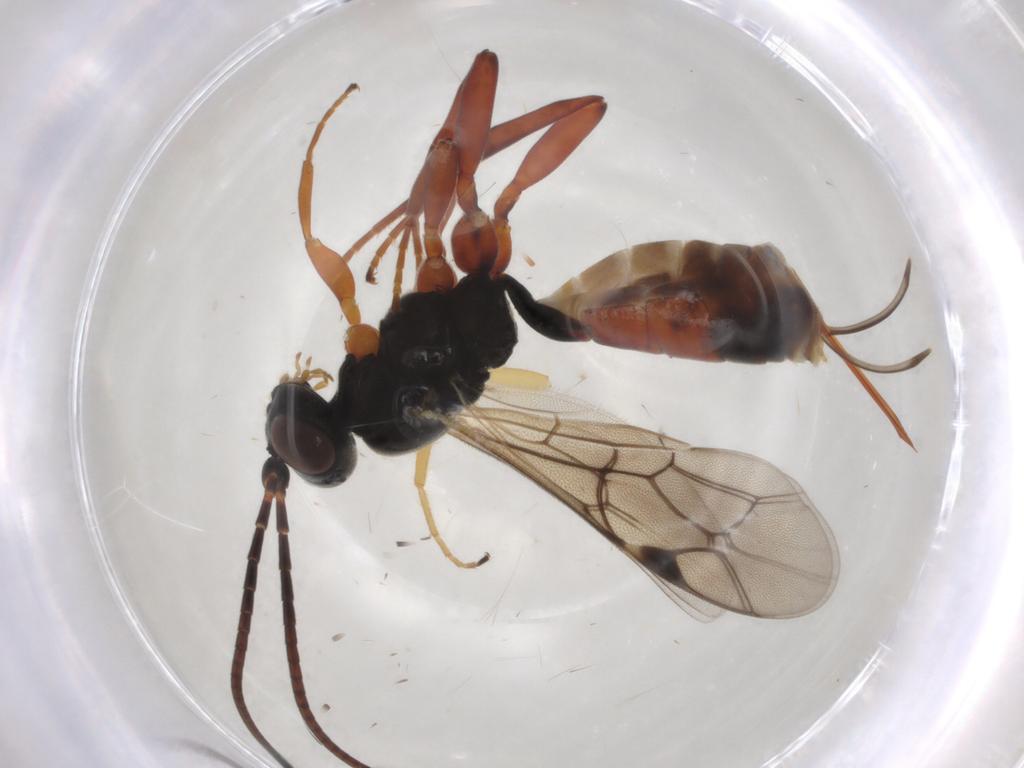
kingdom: Animalia
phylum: Arthropoda
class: Insecta
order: Hymenoptera
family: Ichneumonidae
